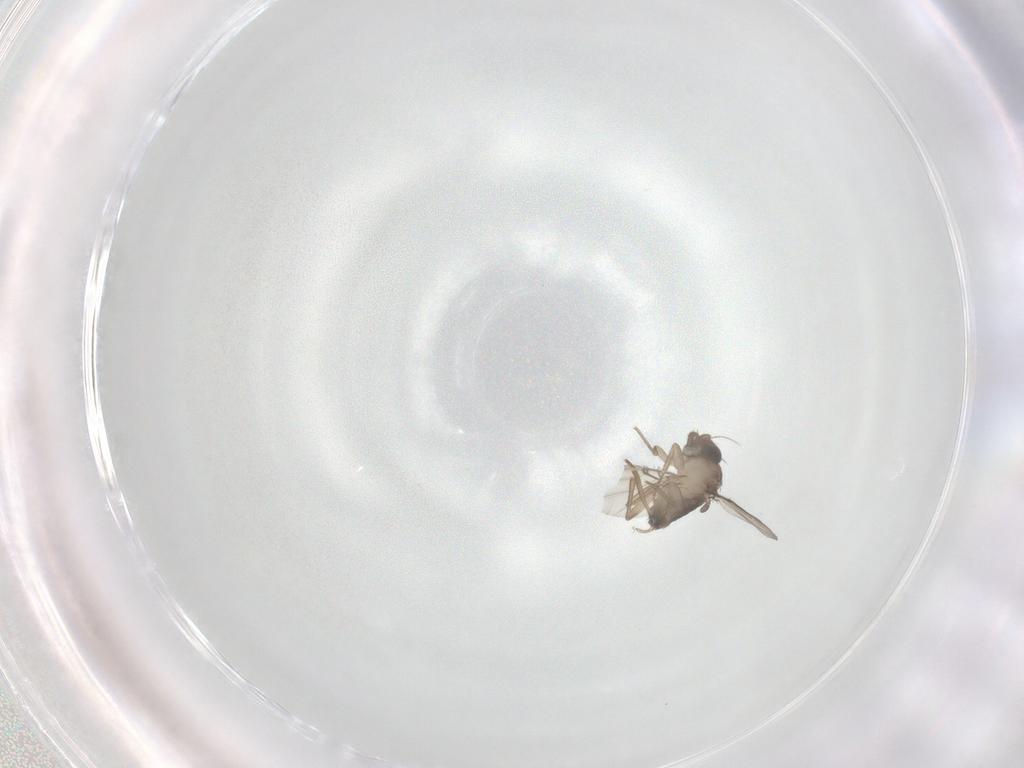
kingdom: Animalia
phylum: Arthropoda
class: Insecta
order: Diptera
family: Phoridae
